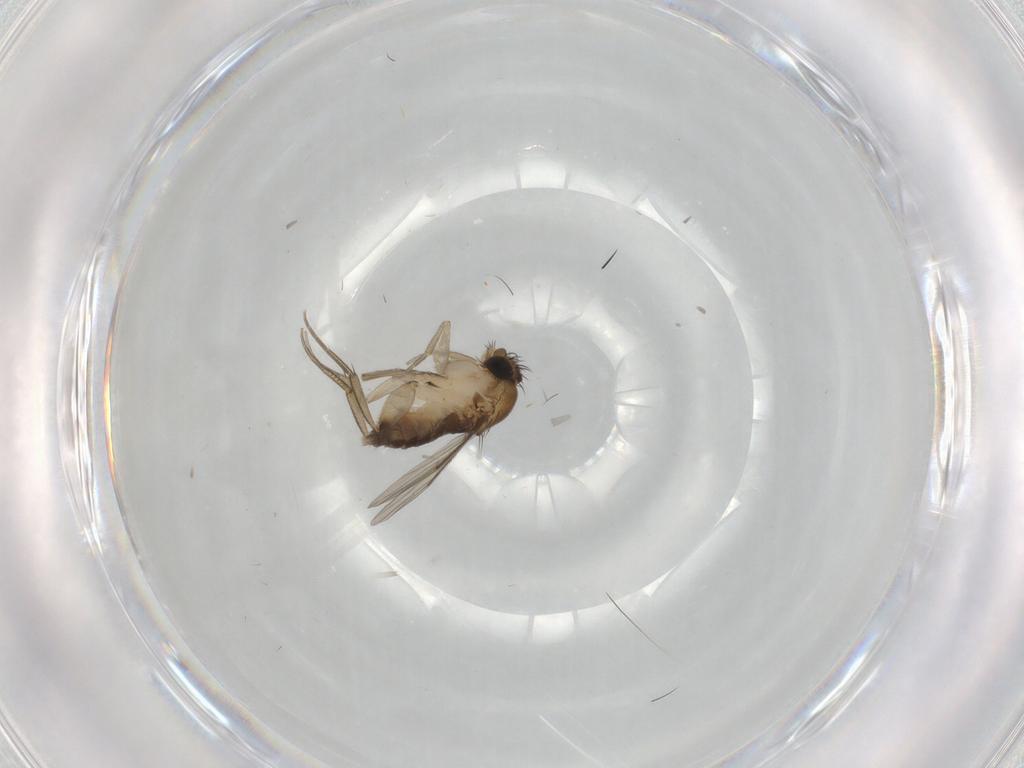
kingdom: Animalia
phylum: Arthropoda
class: Insecta
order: Diptera
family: Phoridae
